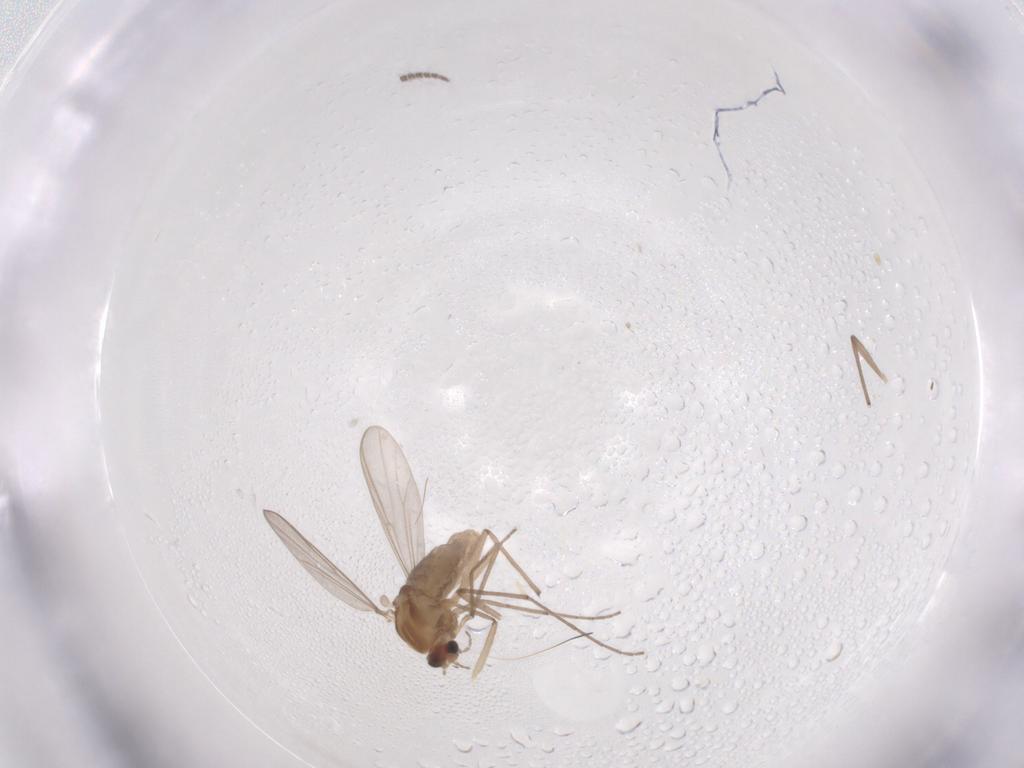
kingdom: Animalia
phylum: Arthropoda
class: Insecta
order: Diptera
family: Chironomidae
